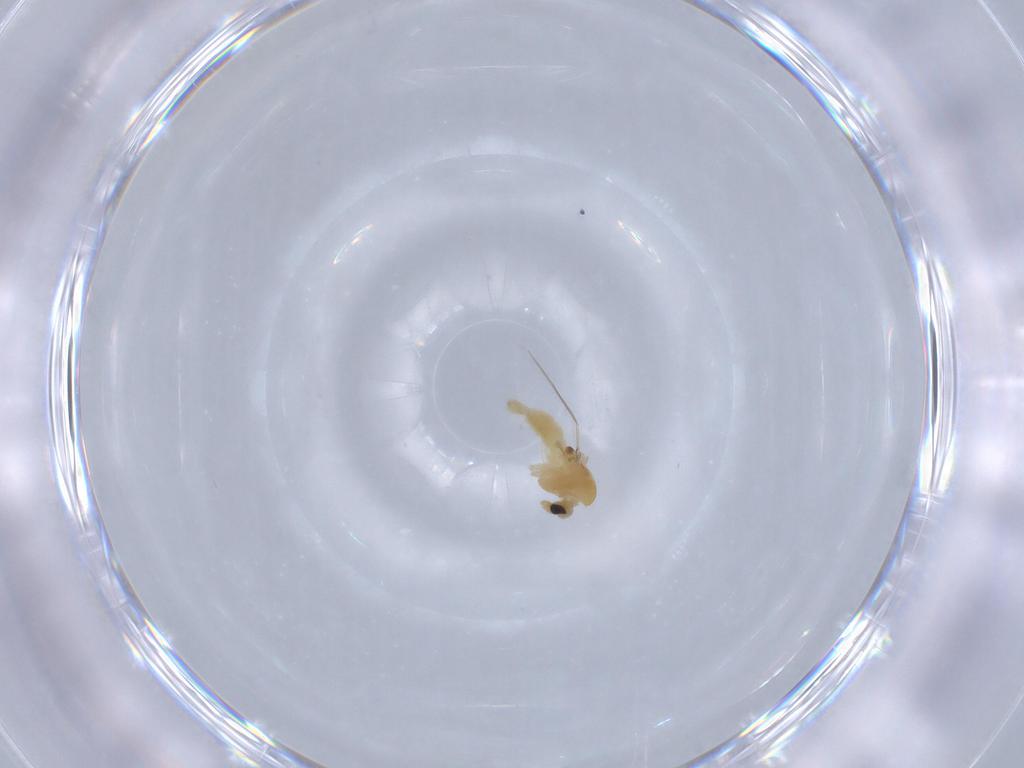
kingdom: Animalia
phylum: Arthropoda
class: Insecta
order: Diptera
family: Chironomidae
